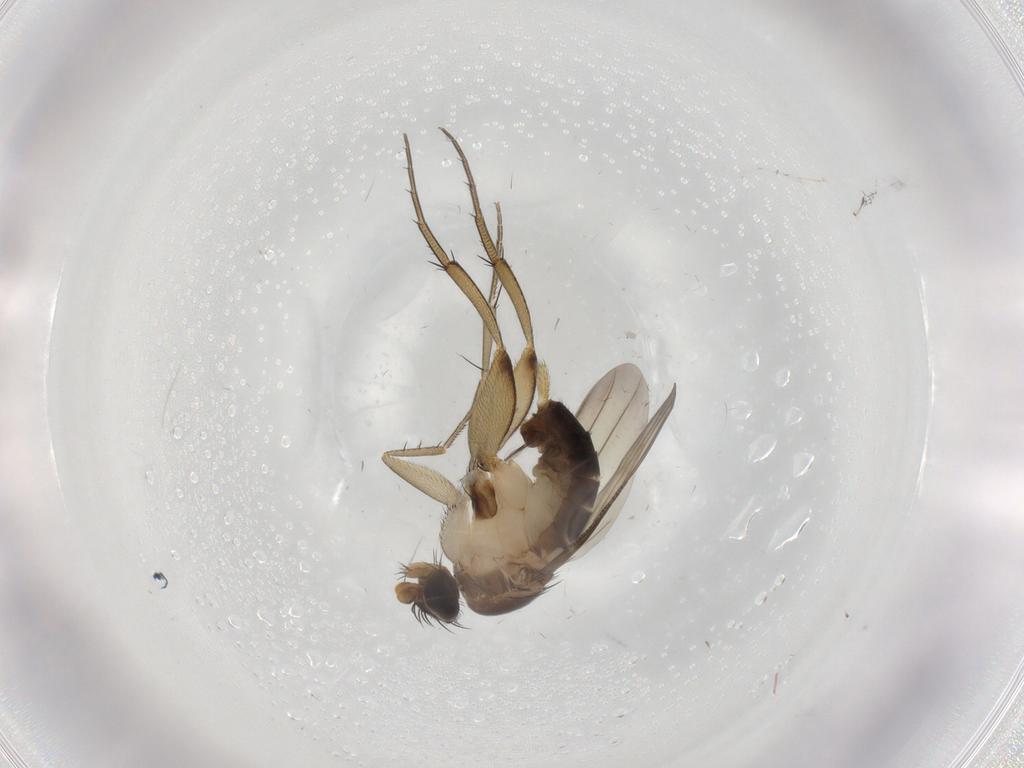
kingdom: Animalia
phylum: Arthropoda
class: Insecta
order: Diptera
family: Phoridae
